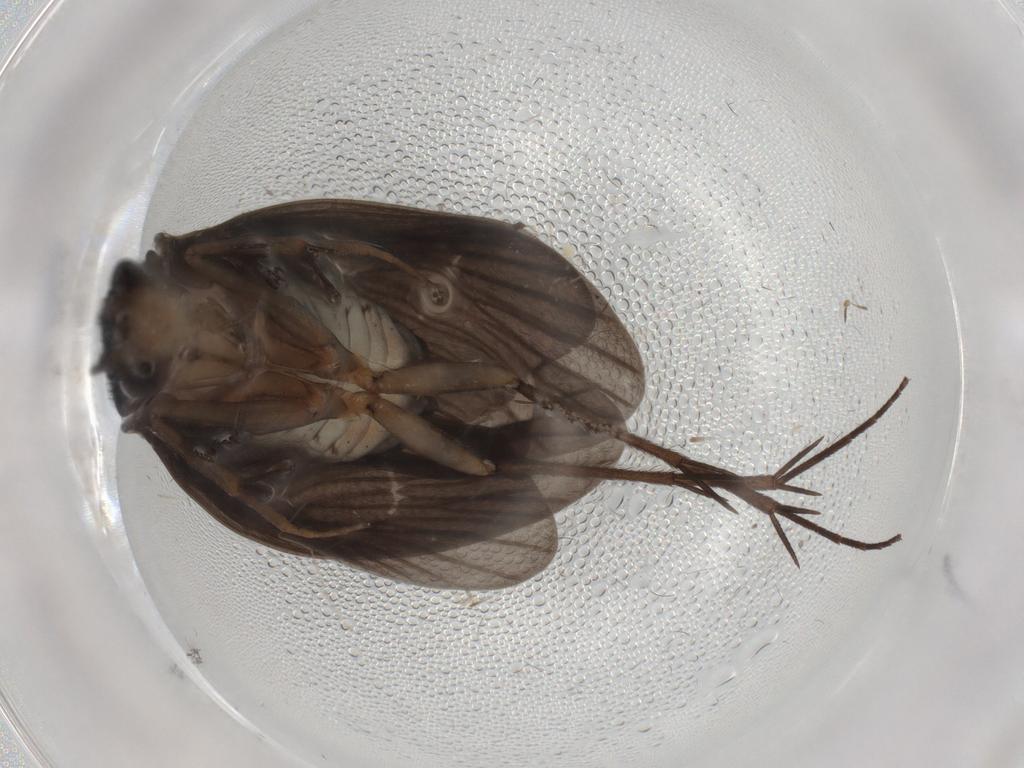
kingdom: Animalia
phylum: Arthropoda
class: Insecta
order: Trichoptera
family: Philopotamidae
